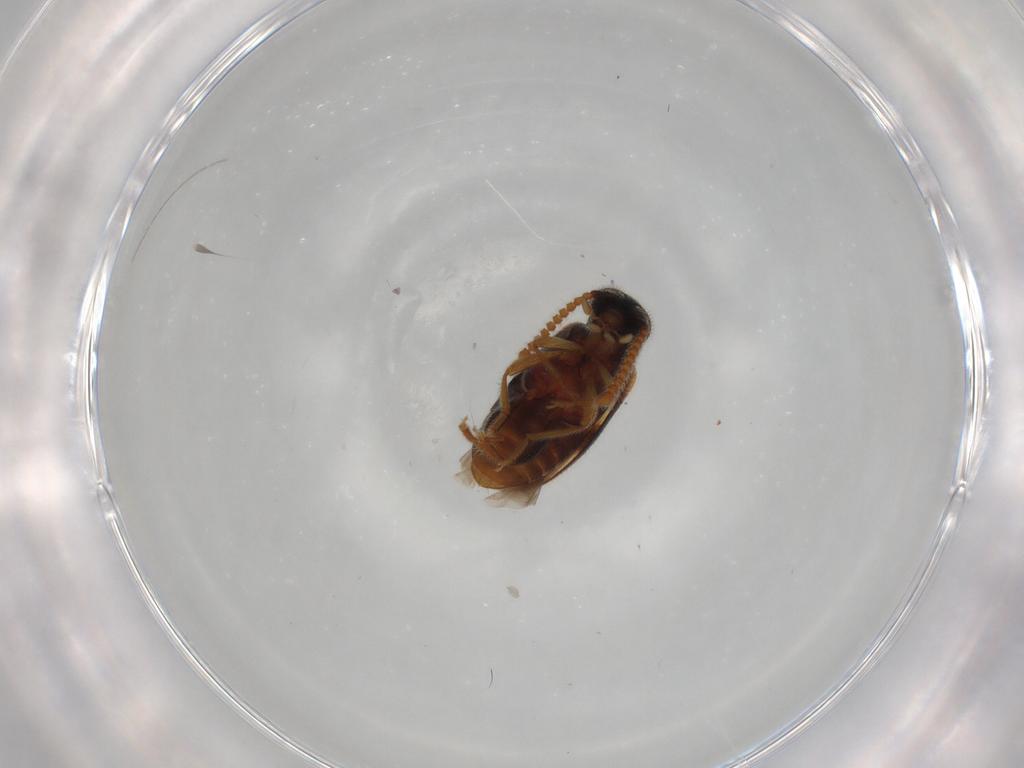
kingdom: Animalia
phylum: Arthropoda
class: Insecta
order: Coleoptera
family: Aderidae
